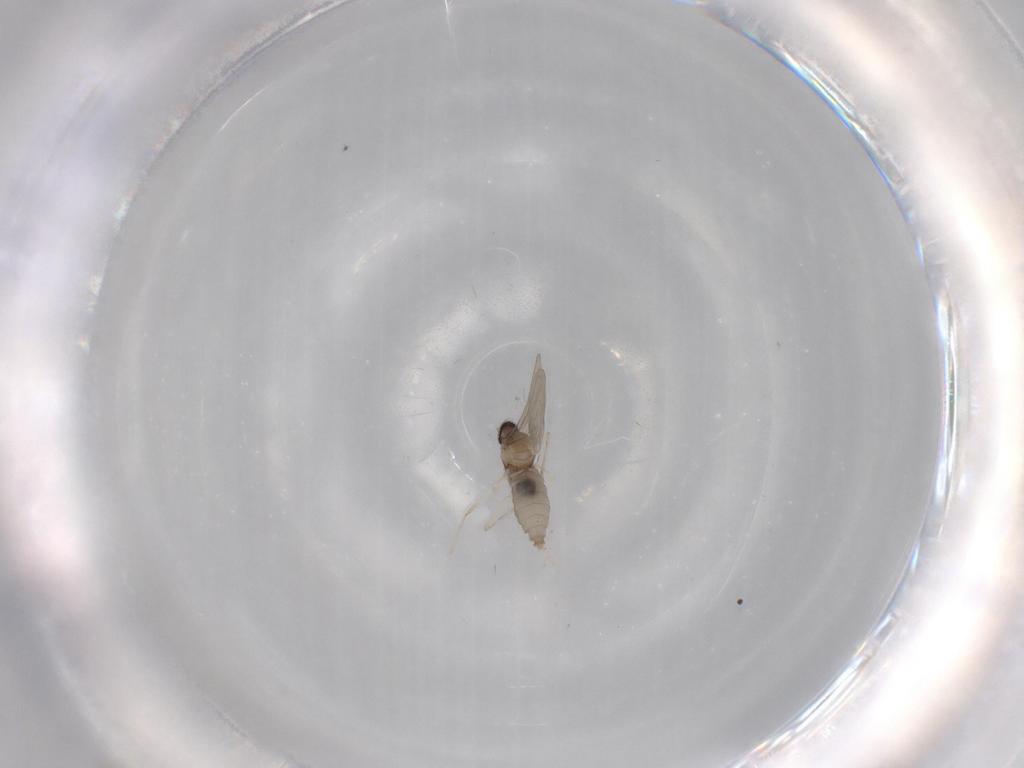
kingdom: Animalia
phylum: Arthropoda
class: Insecta
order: Diptera
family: Cecidomyiidae
